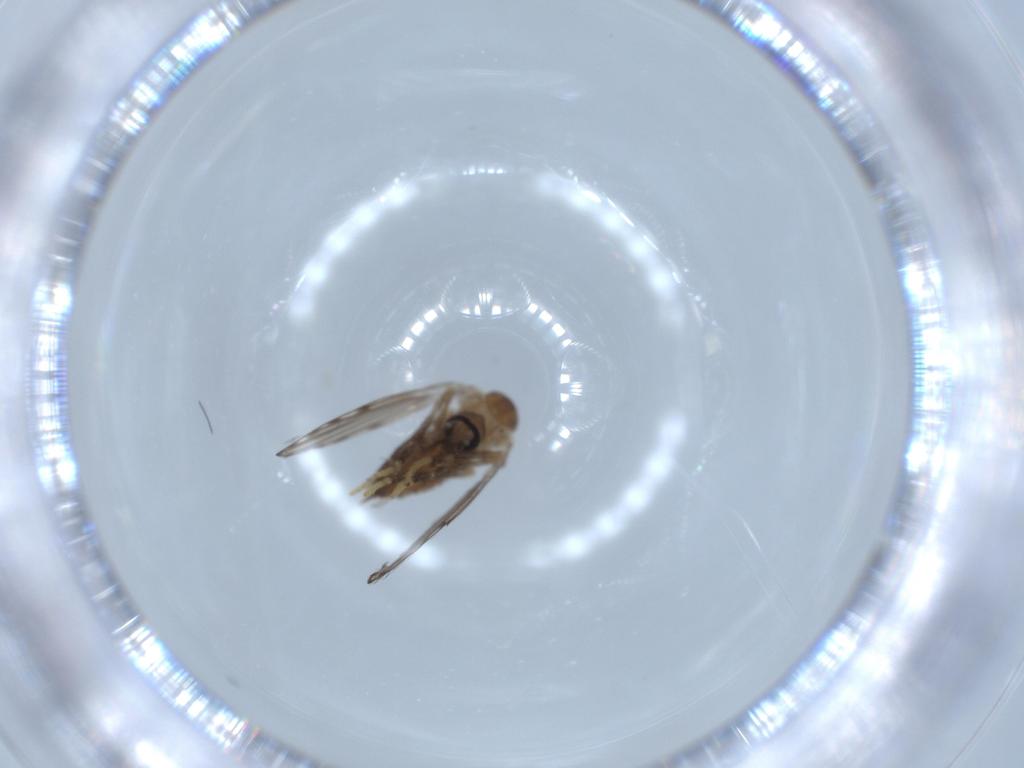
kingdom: Animalia
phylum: Arthropoda
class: Insecta
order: Diptera
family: Psychodidae
